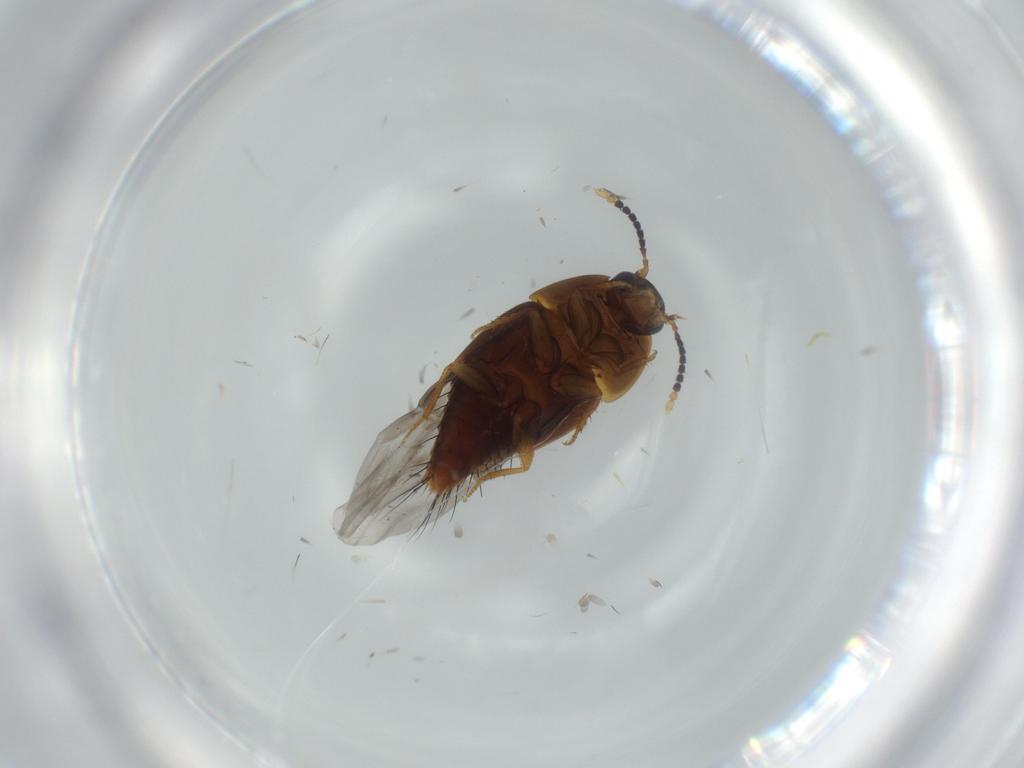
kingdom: Animalia
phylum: Arthropoda
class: Insecta
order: Coleoptera
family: Staphylinidae
